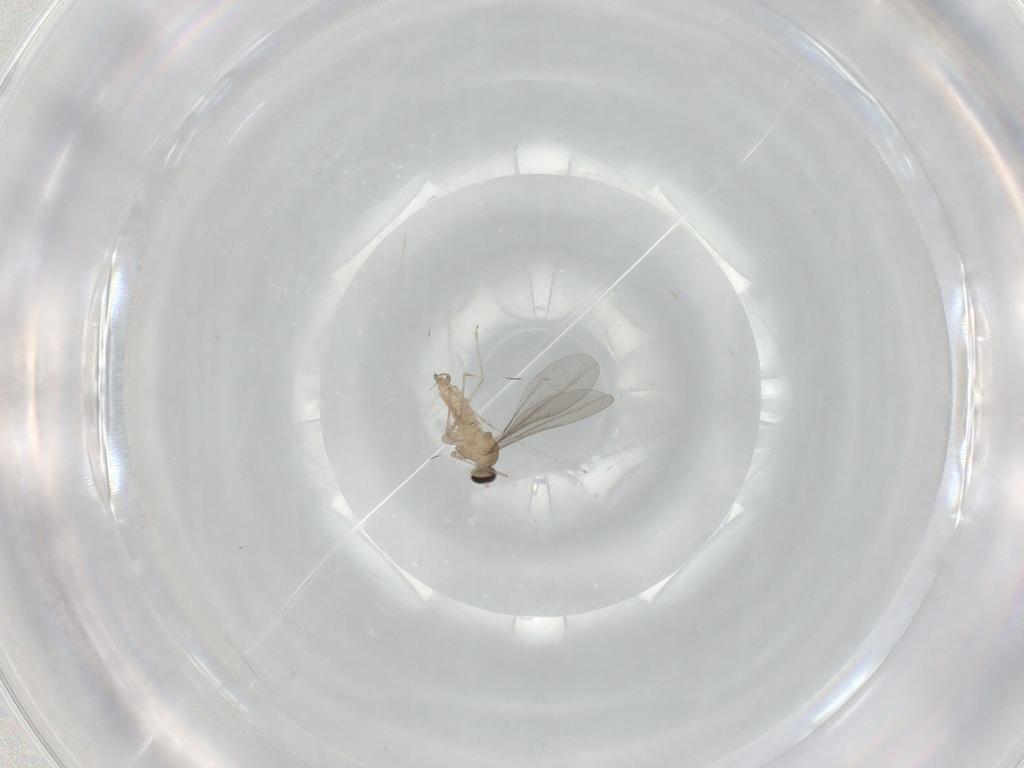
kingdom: Animalia
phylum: Arthropoda
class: Insecta
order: Diptera
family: Cecidomyiidae
